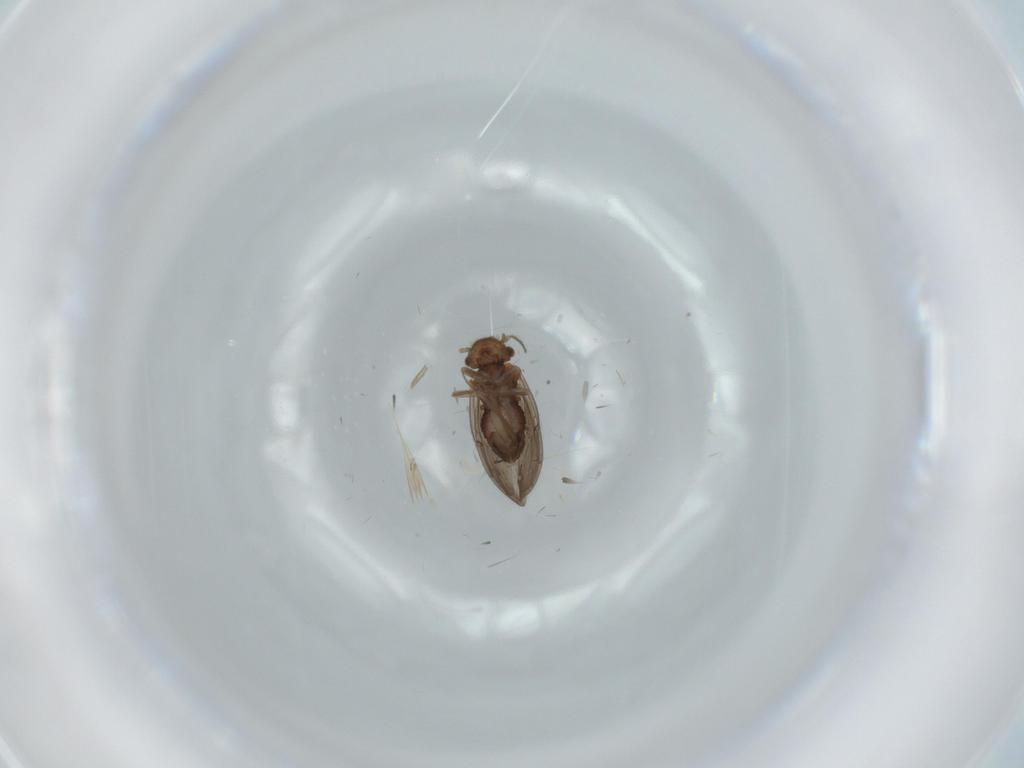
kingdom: Animalia
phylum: Arthropoda
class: Insecta
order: Psocodea
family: Ectopsocidae
